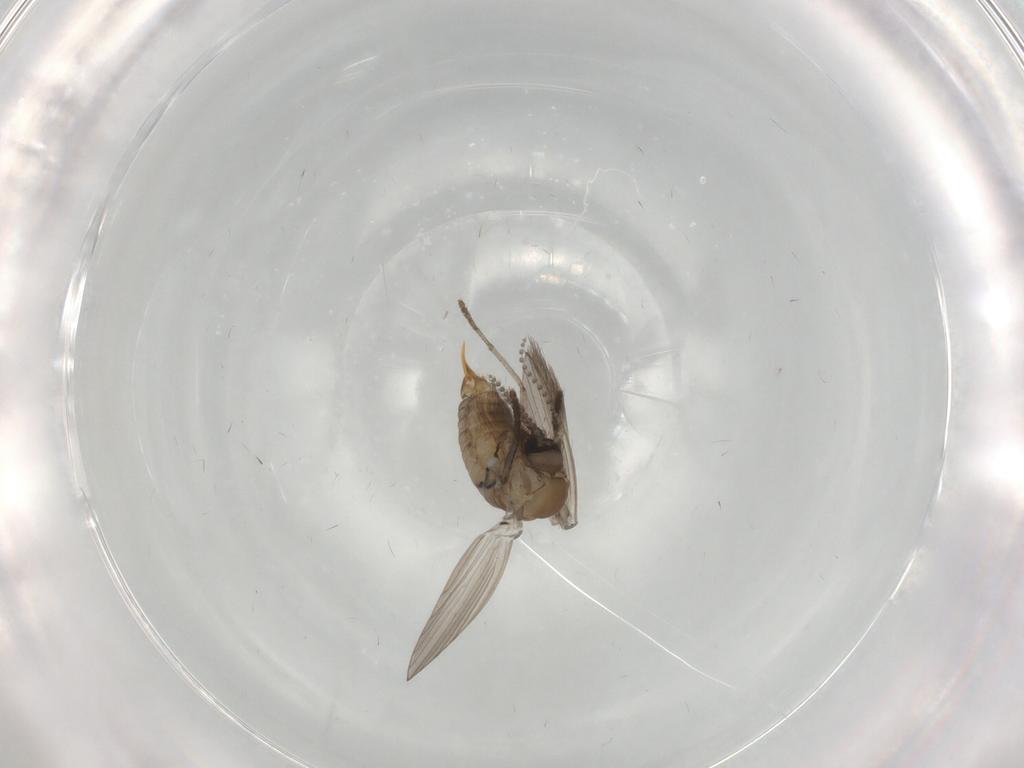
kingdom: Animalia
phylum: Arthropoda
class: Insecta
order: Diptera
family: Psychodidae
